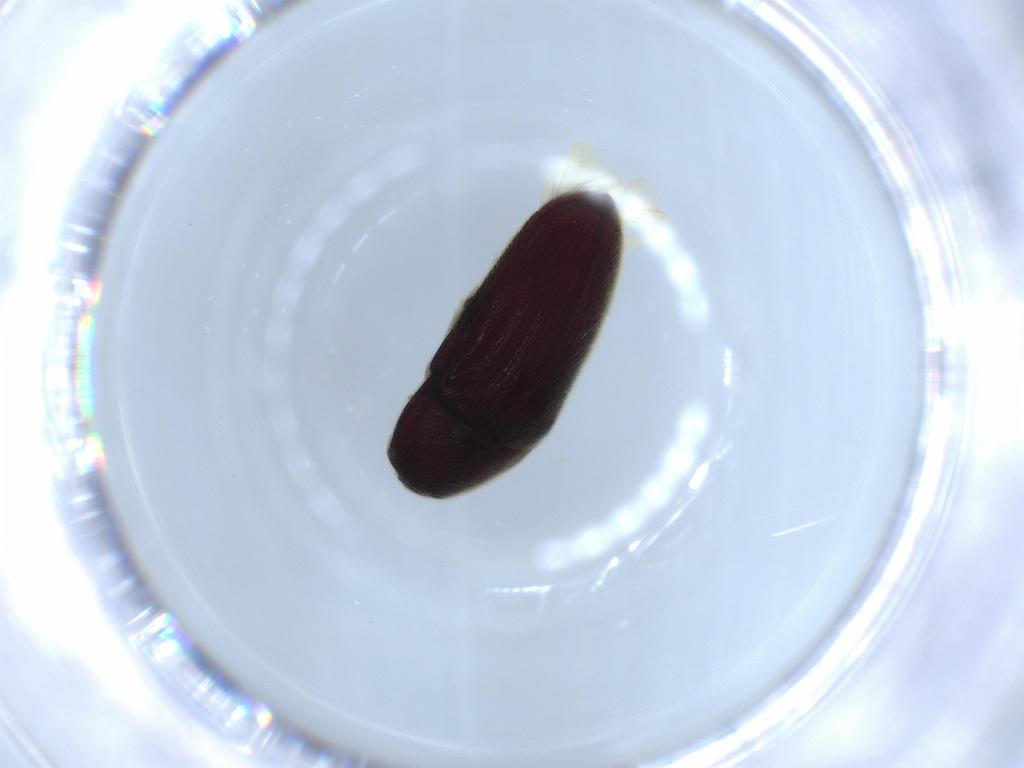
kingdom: Animalia
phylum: Arthropoda
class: Insecta
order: Coleoptera
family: Throscidae
